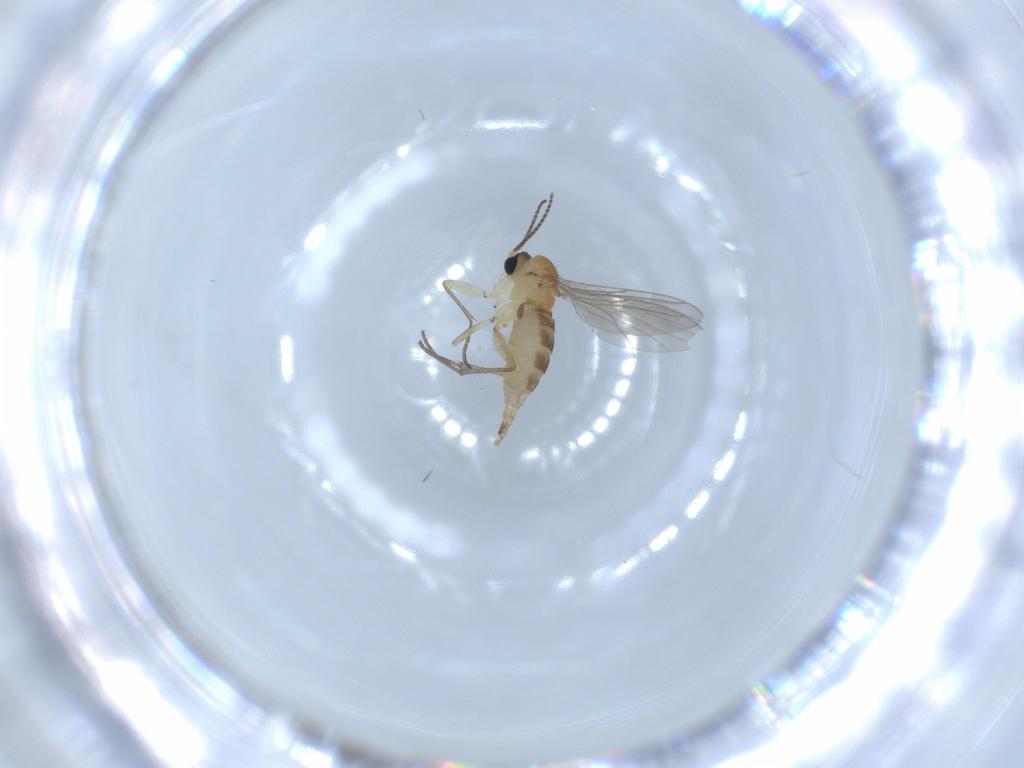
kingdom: Animalia
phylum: Arthropoda
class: Insecta
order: Diptera
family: Sciaridae
